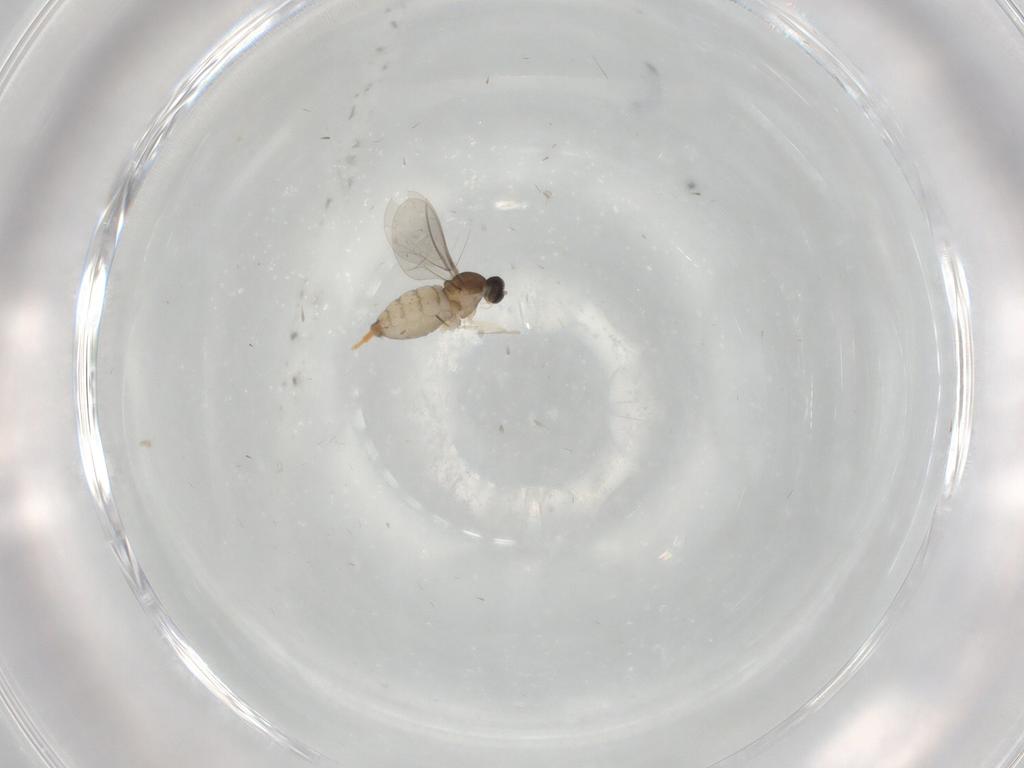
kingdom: Animalia
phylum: Arthropoda
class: Insecta
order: Diptera
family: Cecidomyiidae
